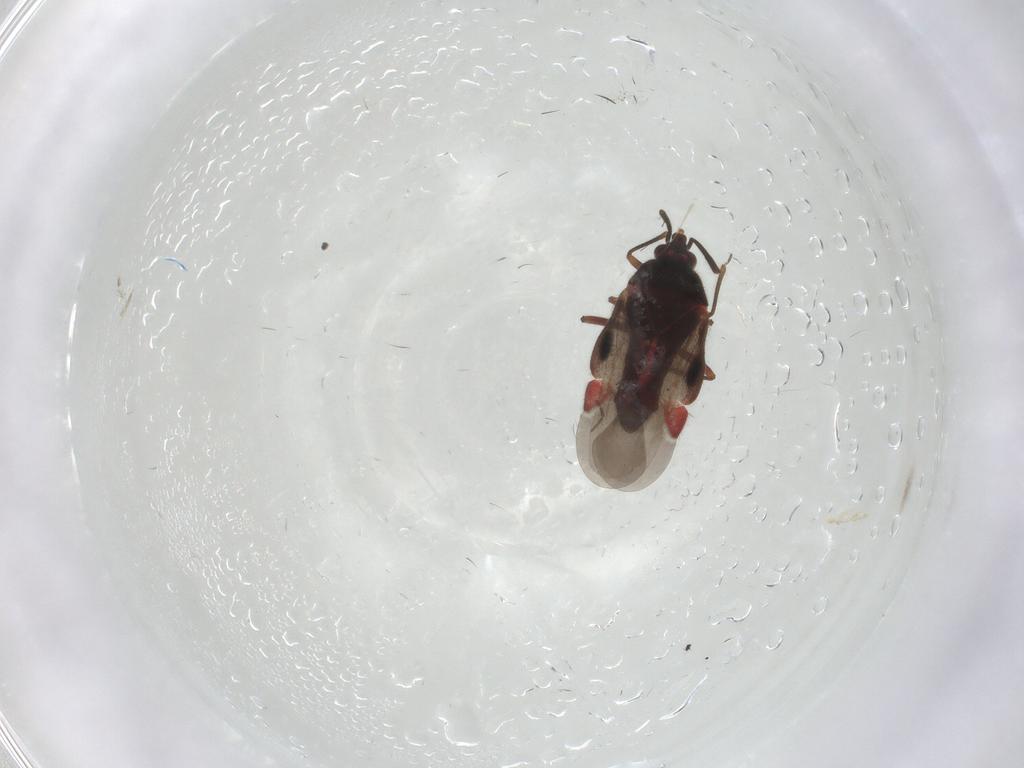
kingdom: Animalia
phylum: Arthropoda
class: Insecta
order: Hemiptera
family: Microphysidae
